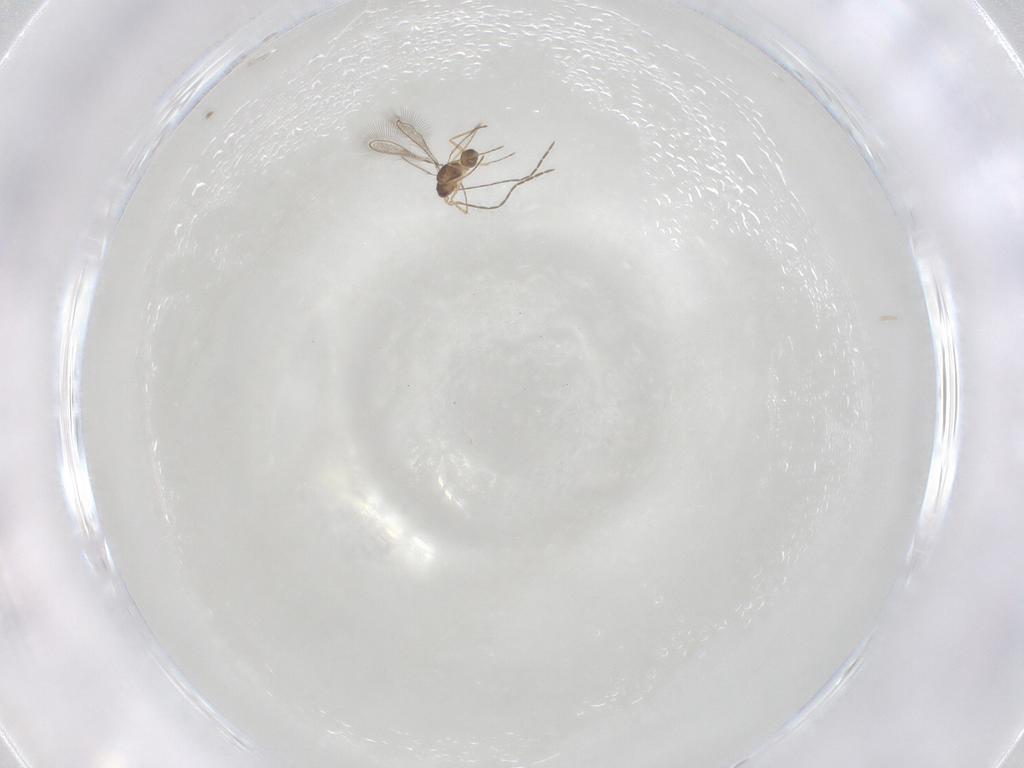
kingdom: Animalia
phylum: Arthropoda
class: Insecta
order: Hymenoptera
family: Mymaridae
